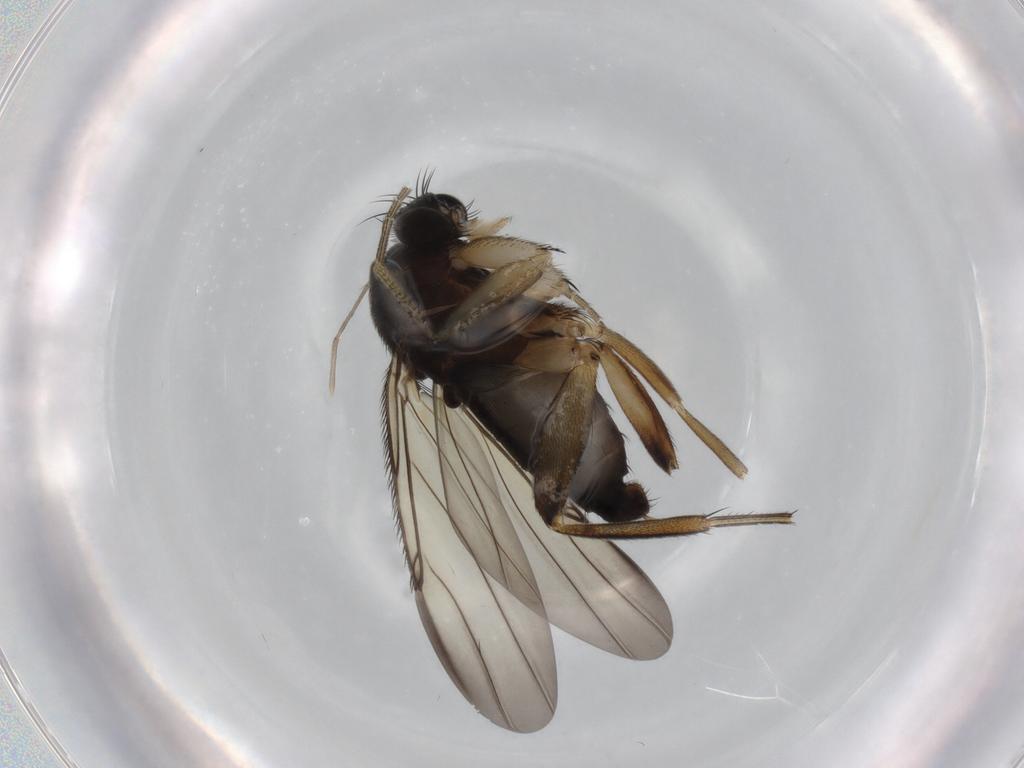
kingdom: Animalia
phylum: Arthropoda
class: Insecta
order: Diptera
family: Phoridae
